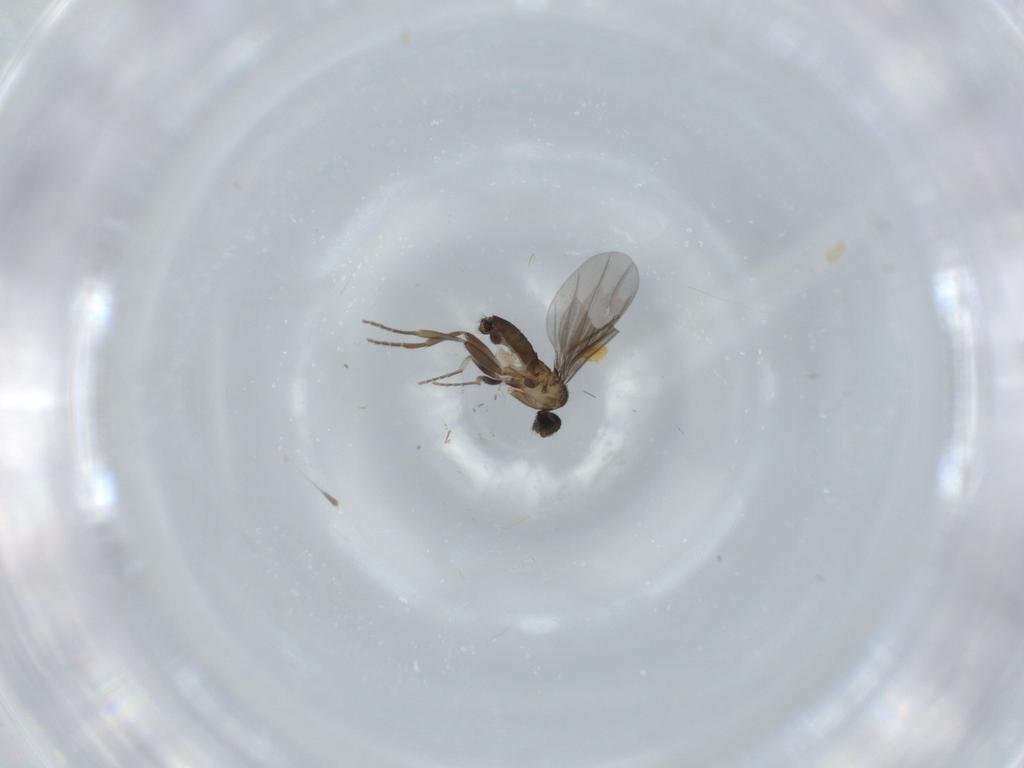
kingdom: Animalia
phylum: Arthropoda
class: Insecta
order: Diptera
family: Phoridae
